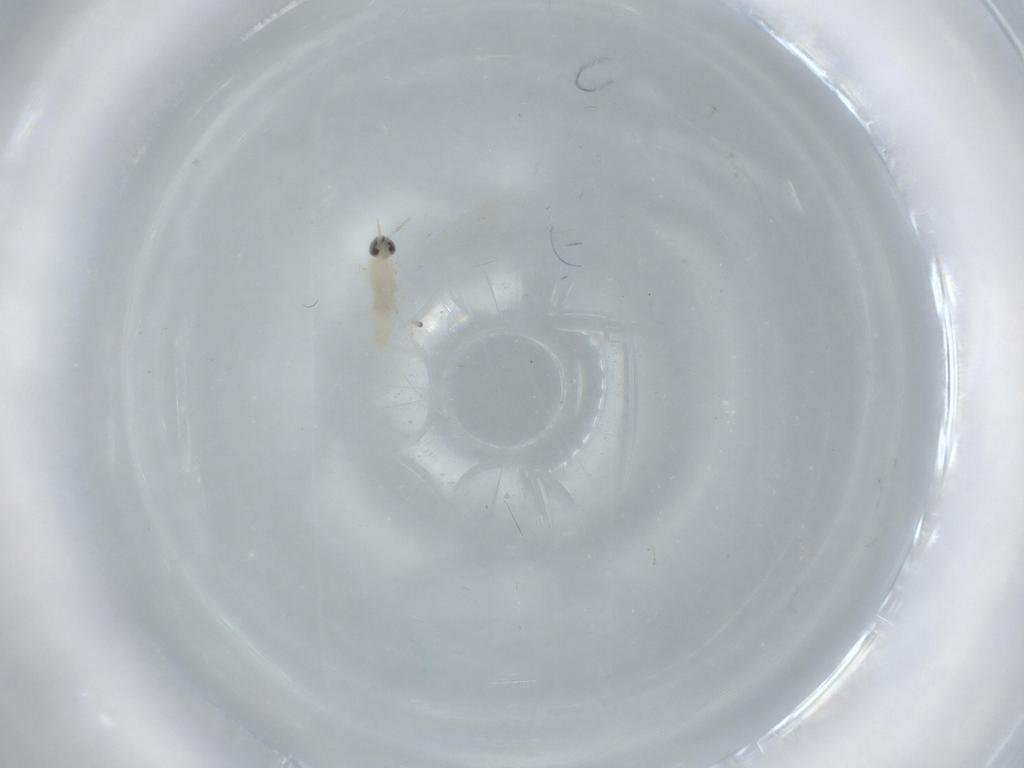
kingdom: Animalia
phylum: Arthropoda
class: Insecta
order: Diptera
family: Cecidomyiidae
